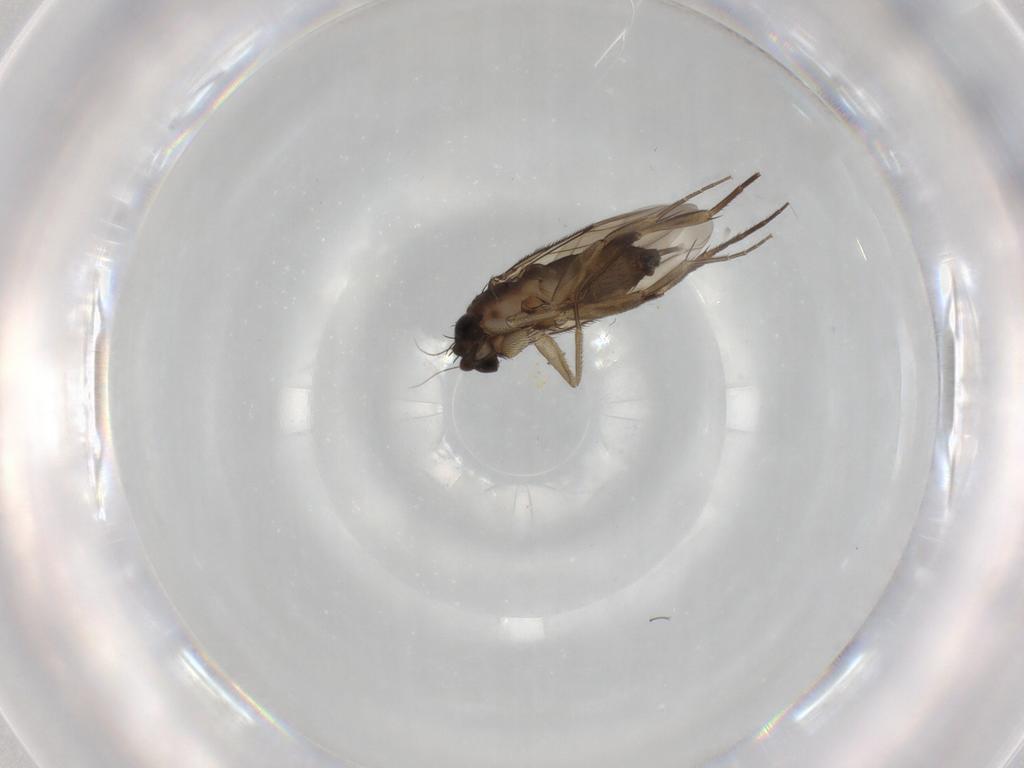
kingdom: Animalia
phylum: Arthropoda
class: Insecta
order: Diptera
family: Phoridae
